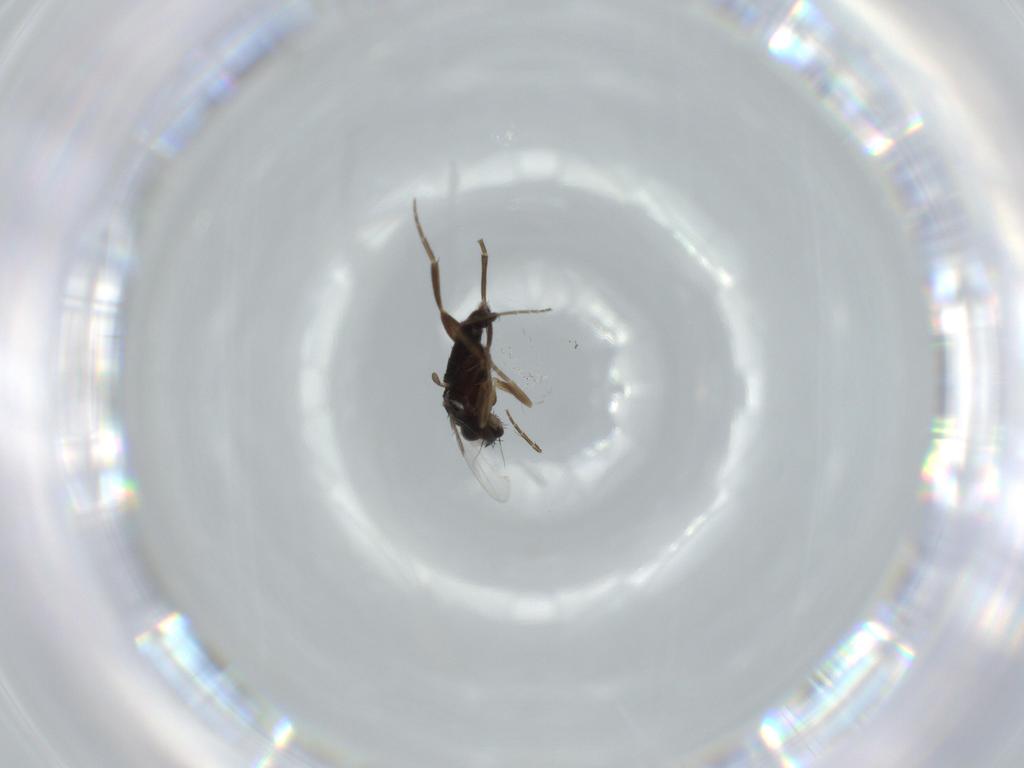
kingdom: Animalia
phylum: Arthropoda
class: Insecta
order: Diptera
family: Phoridae
